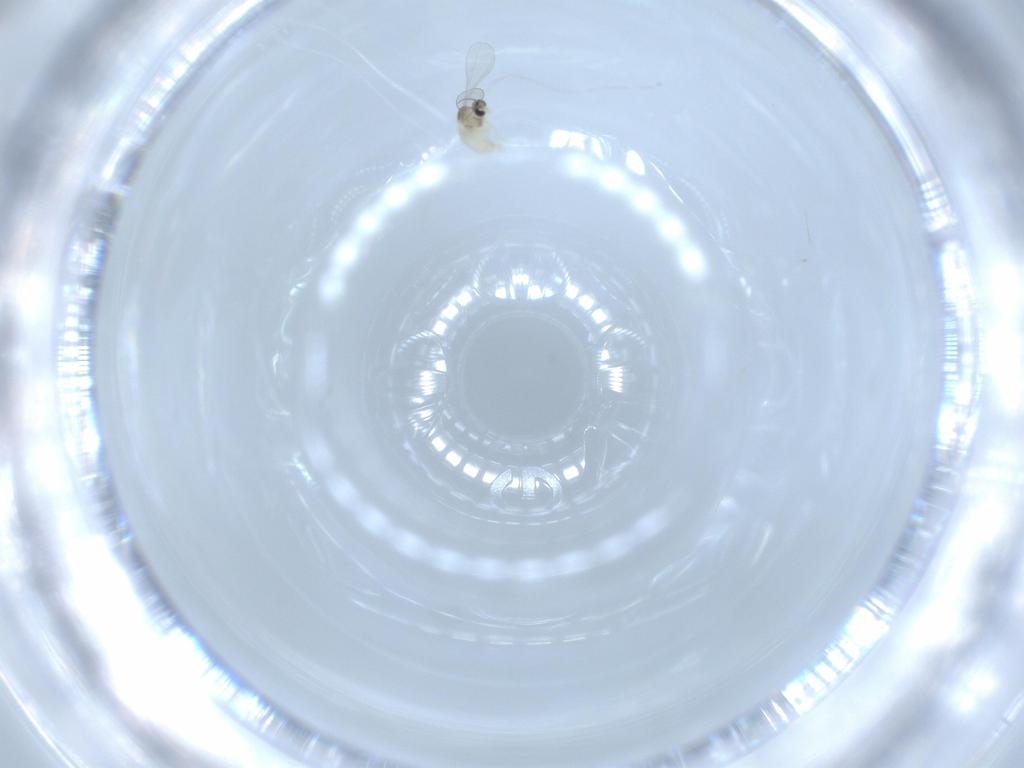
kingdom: Animalia
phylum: Arthropoda
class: Insecta
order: Diptera
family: Cecidomyiidae
